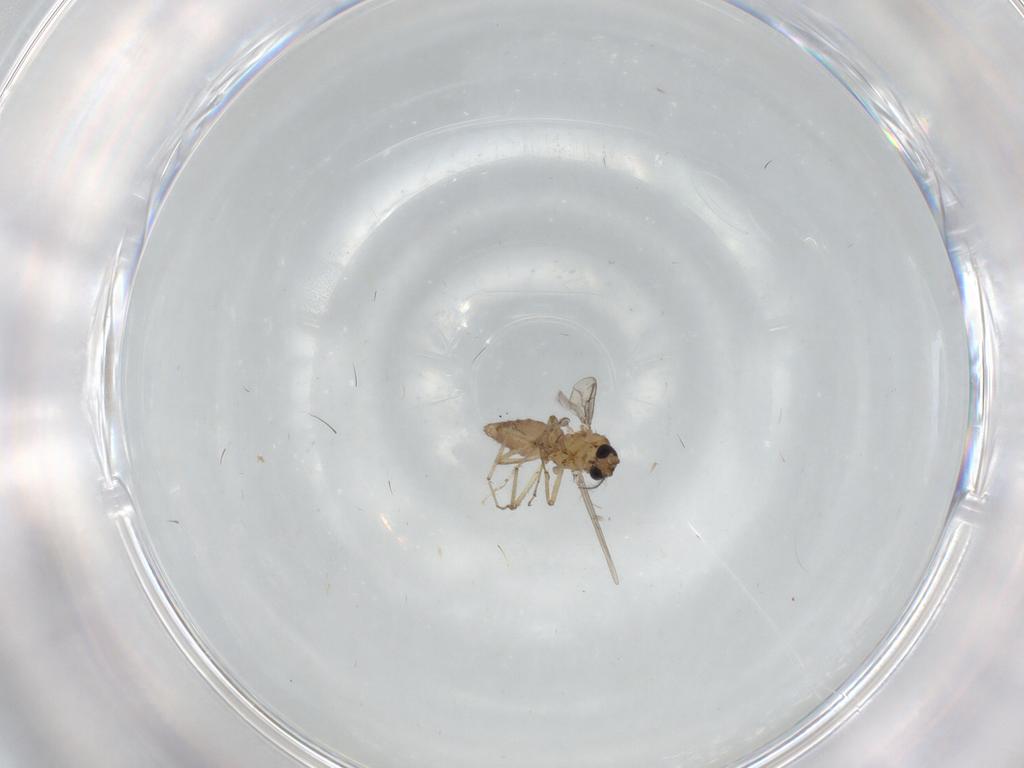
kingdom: Animalia
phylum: Arthropoda
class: Insecta
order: Diptera
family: Ceratopogonidae
